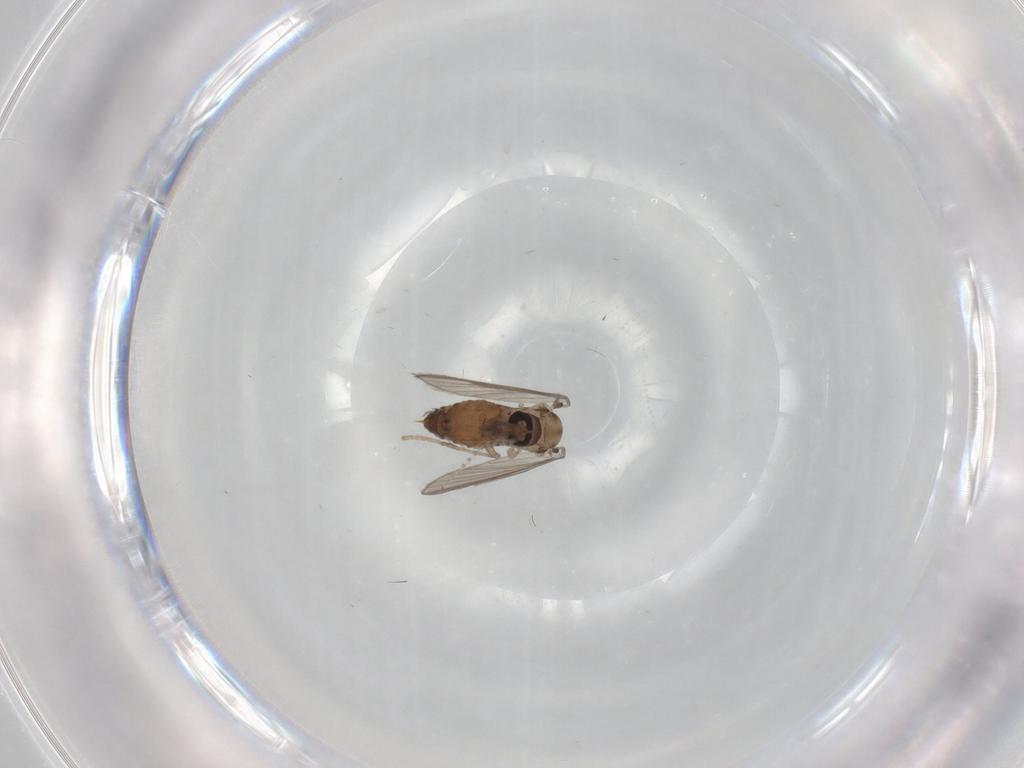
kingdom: Animalia
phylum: Arthropoda
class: Insecta
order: Diptera
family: Psychodidae
